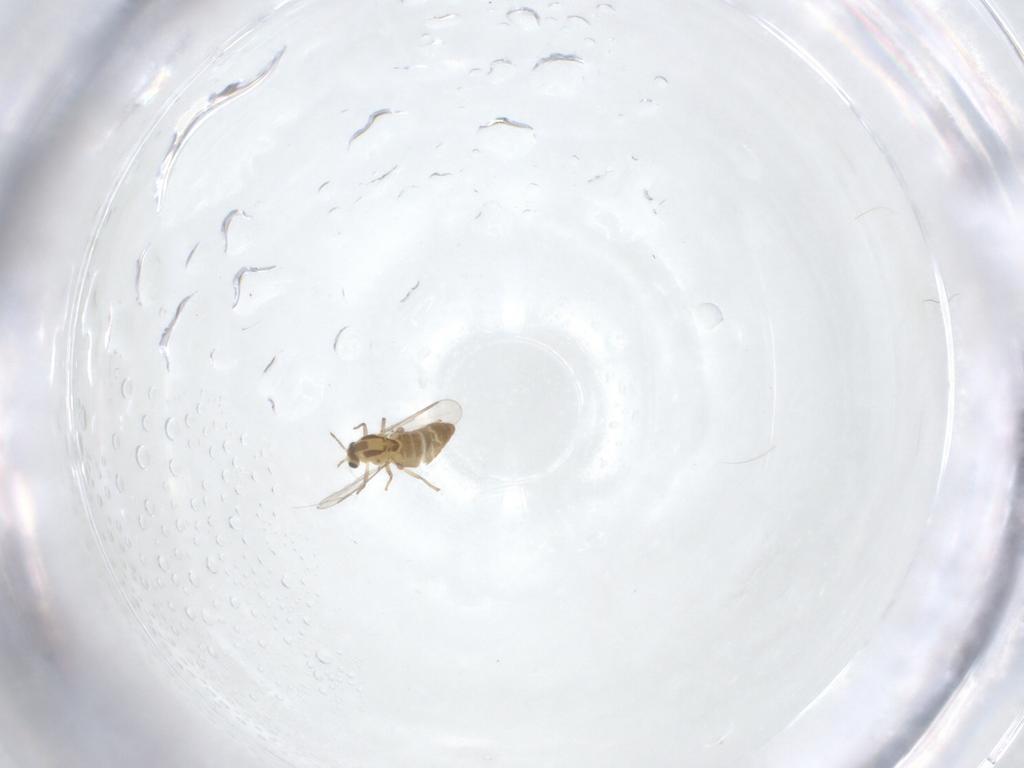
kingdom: Animalia
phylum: Arthropoda
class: Insecta
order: Diptera
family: Chironomidae
